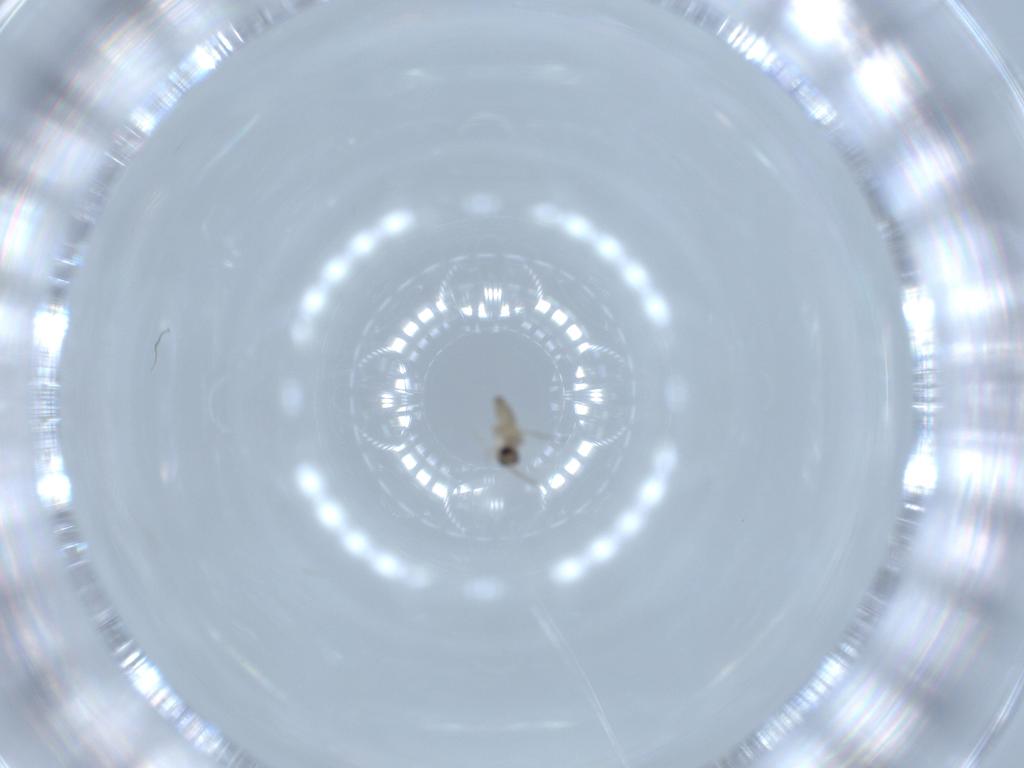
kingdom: Animalia
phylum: Arthropoda
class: Insecta
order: Diptera
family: Cecidomyiidae
